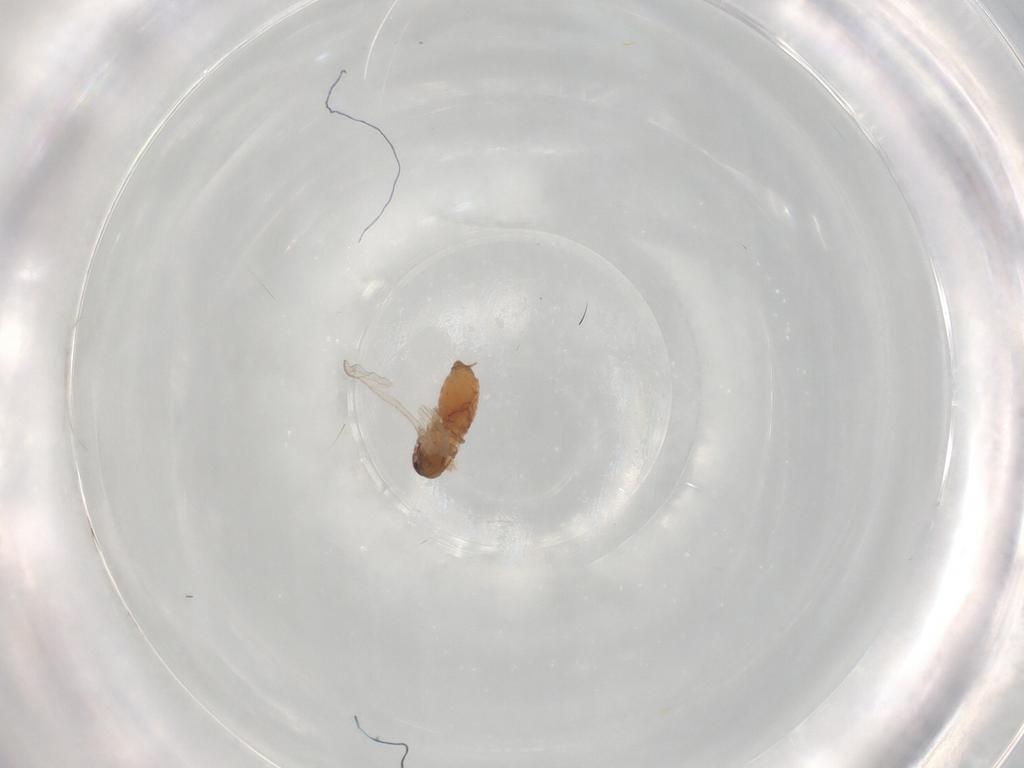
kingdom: Animalia
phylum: Arthropoda
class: Insecta
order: Diptera
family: Psychodidae
